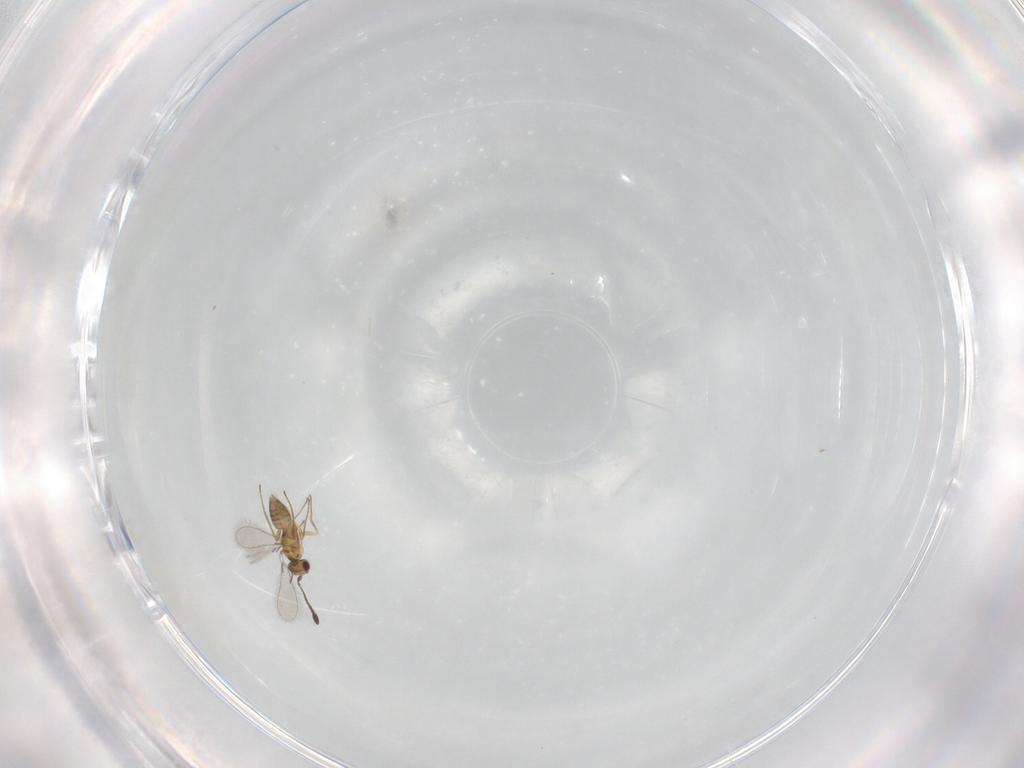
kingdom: Animalia
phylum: Arthropoda
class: Insecta
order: Hymenoptera
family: Mymaridae
